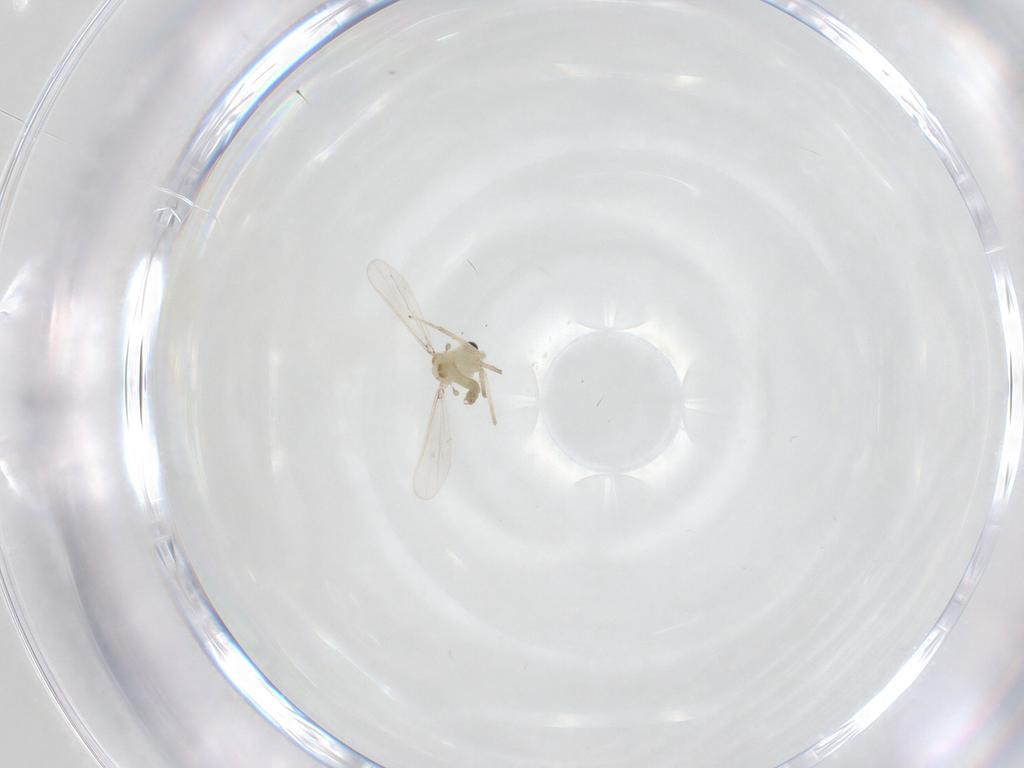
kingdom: Animalia
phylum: Arthropoda
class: Insecta
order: Diptera
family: Chironomidae
